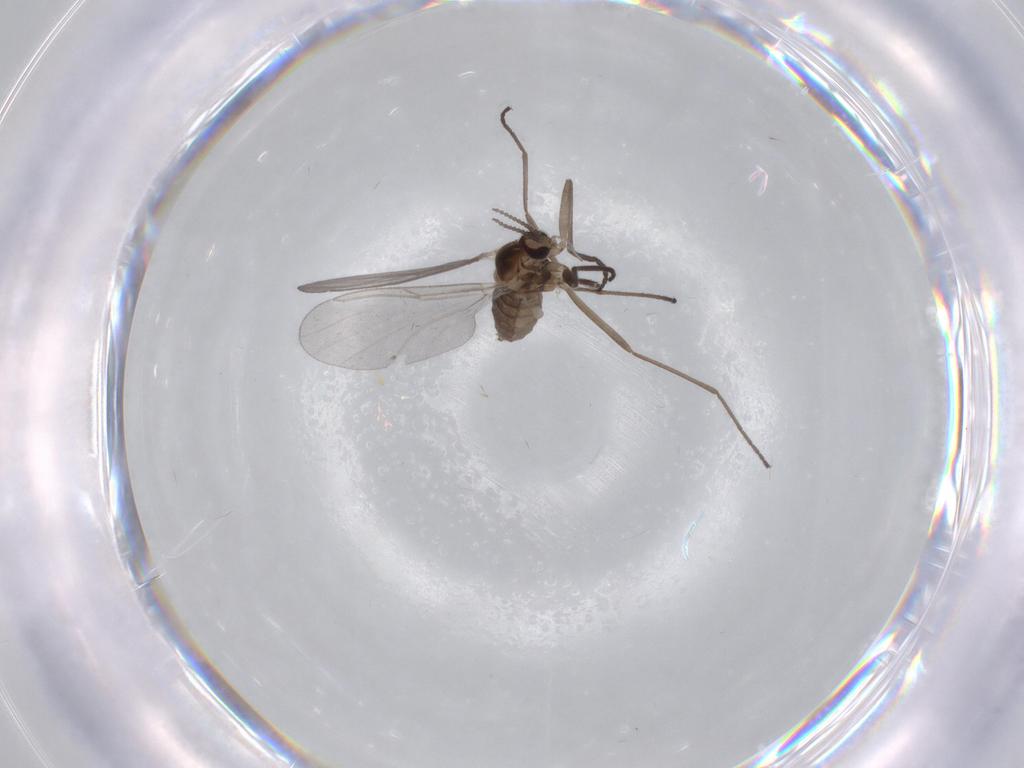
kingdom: Animalia
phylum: Arthropoda
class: Insecta
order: Diptera
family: Cecidomyiidae
